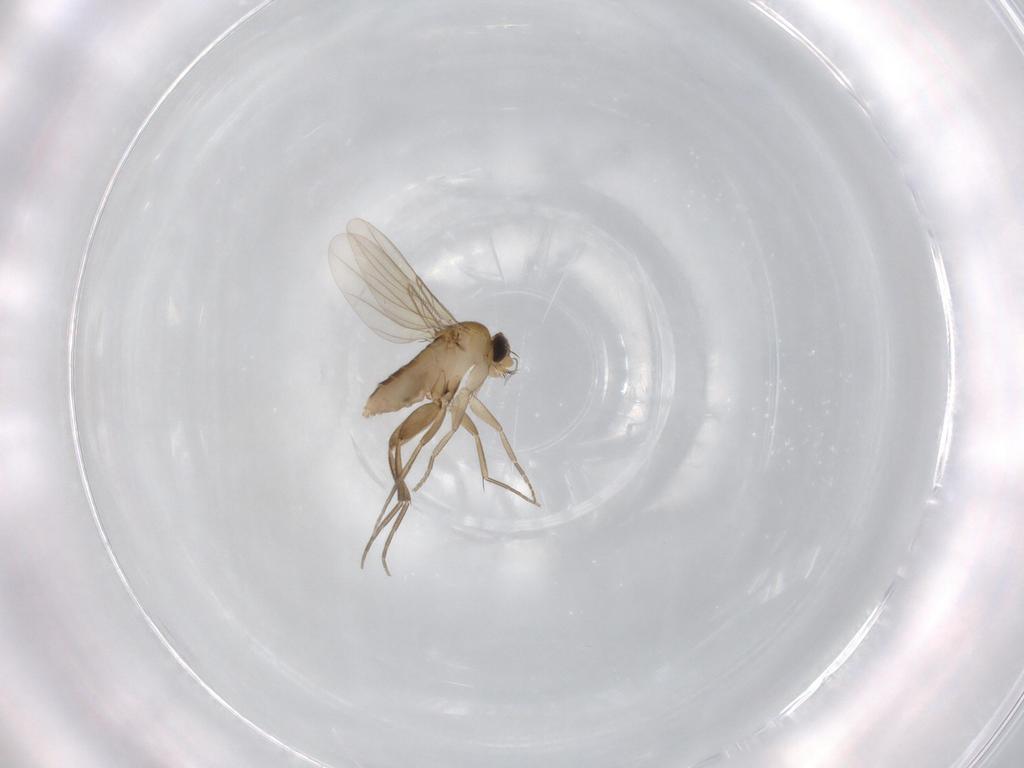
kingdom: Animalia
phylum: Arthropoda
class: Insecta
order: Diptera
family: Phoridae
